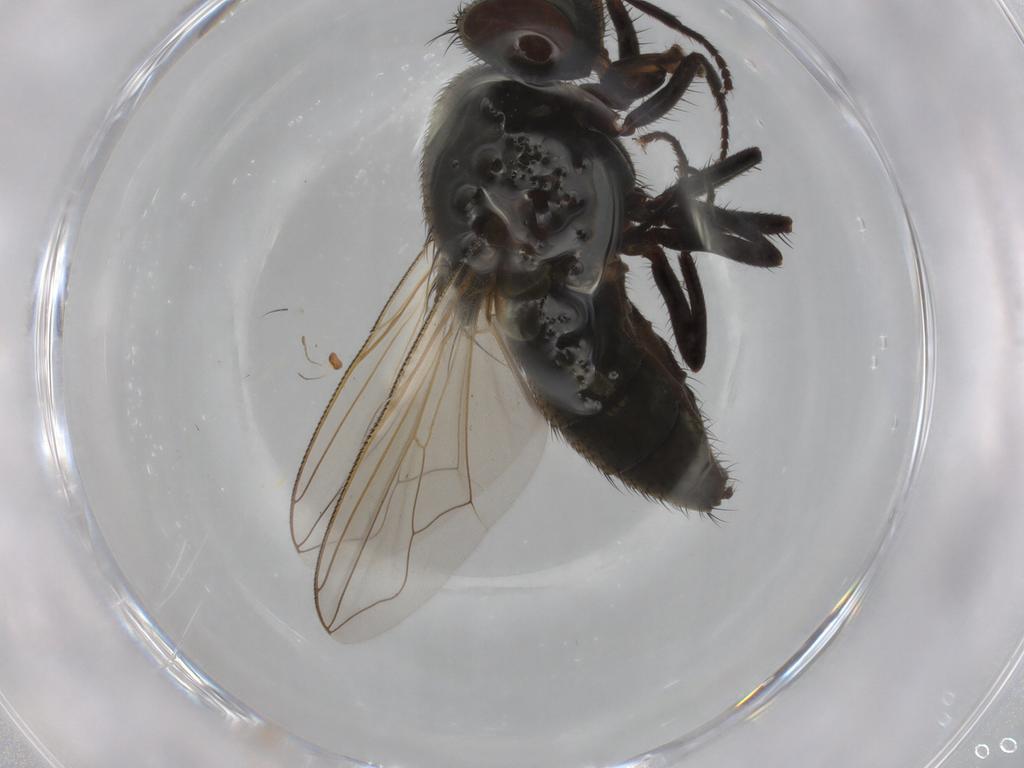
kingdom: Animalia
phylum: Arthropoda
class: Insecta
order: Diptera
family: Muscidae
